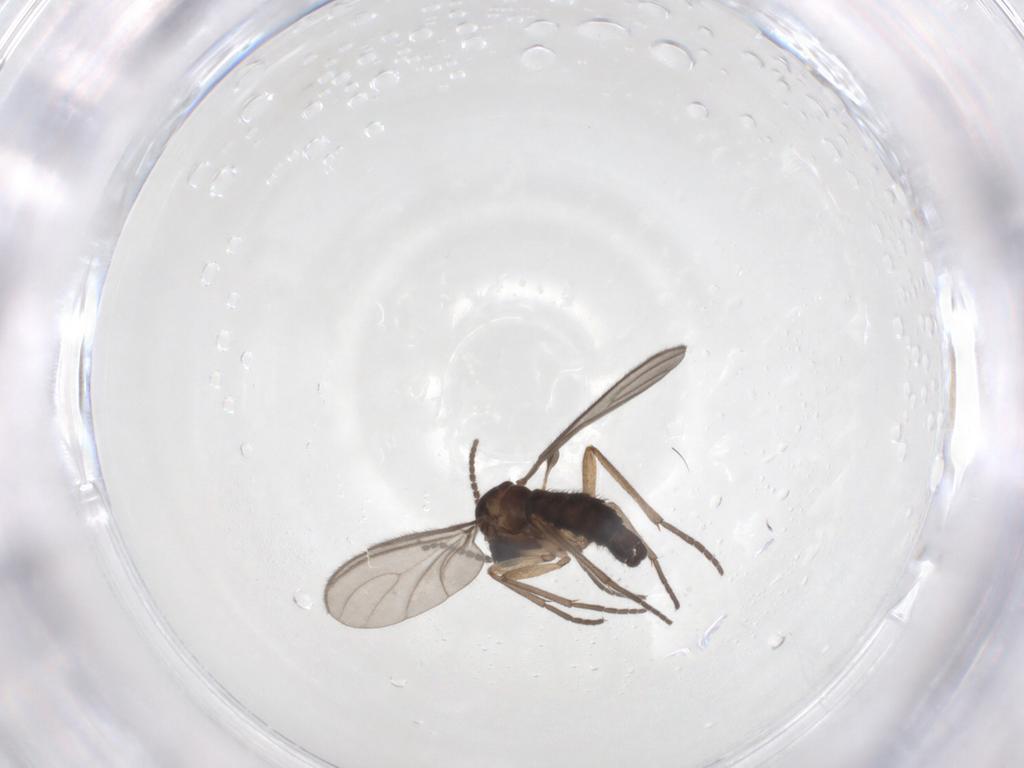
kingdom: Animalia
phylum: Arthropoda
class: Insecta
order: Diptera
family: Sciaridae
